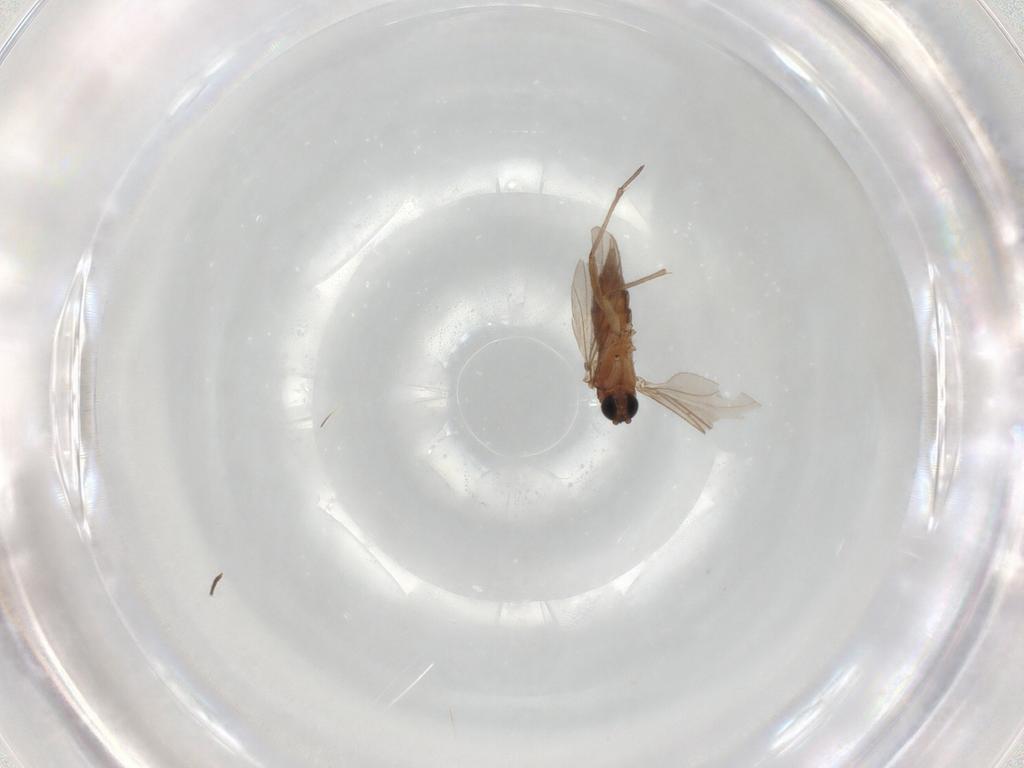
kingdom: Animalia
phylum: Arthropoda
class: Insecta
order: Diptera
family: Sciaridae
